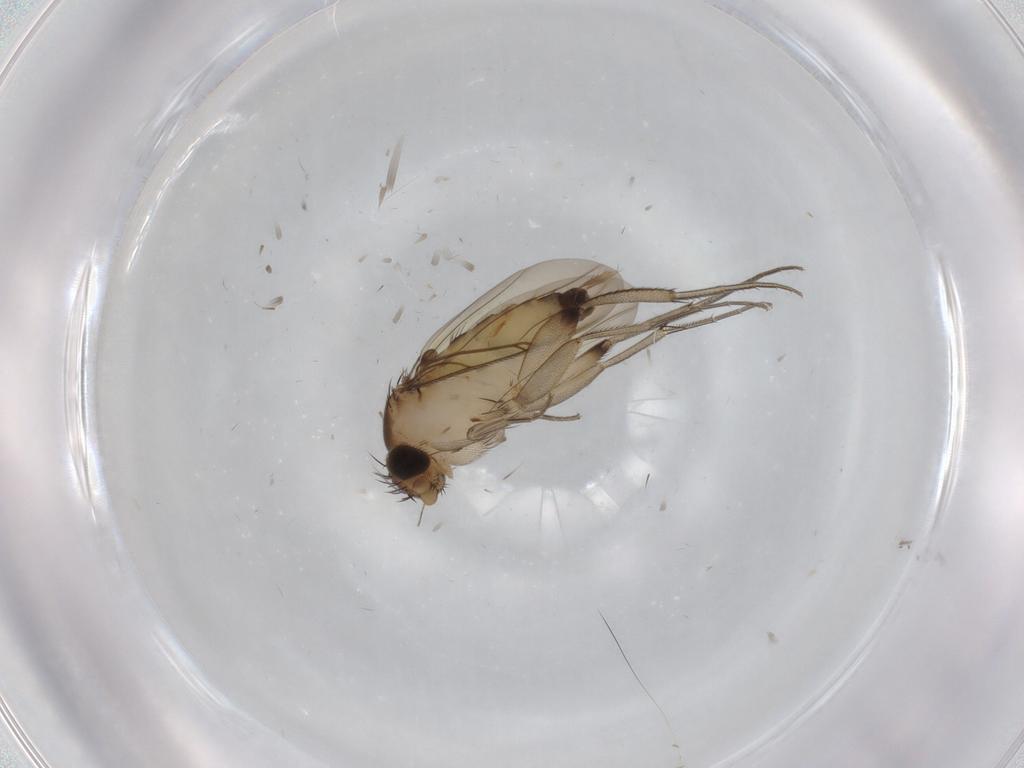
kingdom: Animalia
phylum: Arthropoda
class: Insecta
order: Diptera
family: Phoridae
